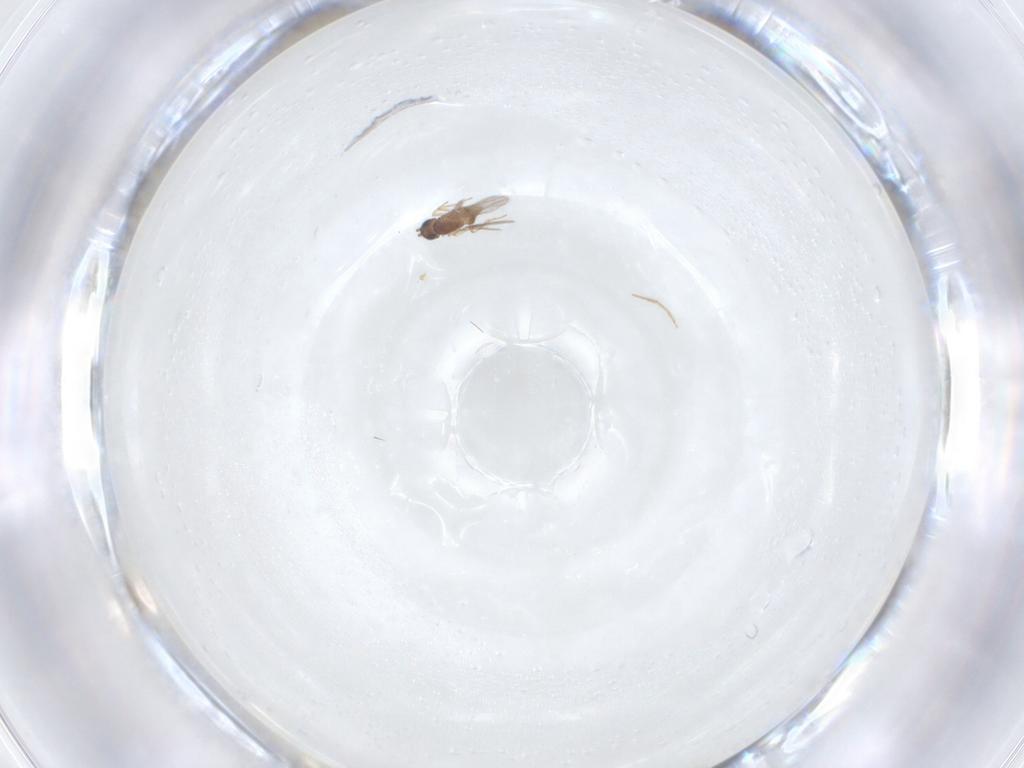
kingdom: Animalia
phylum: Arthropoda
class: Insecta
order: Diptera
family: Chironomidae
